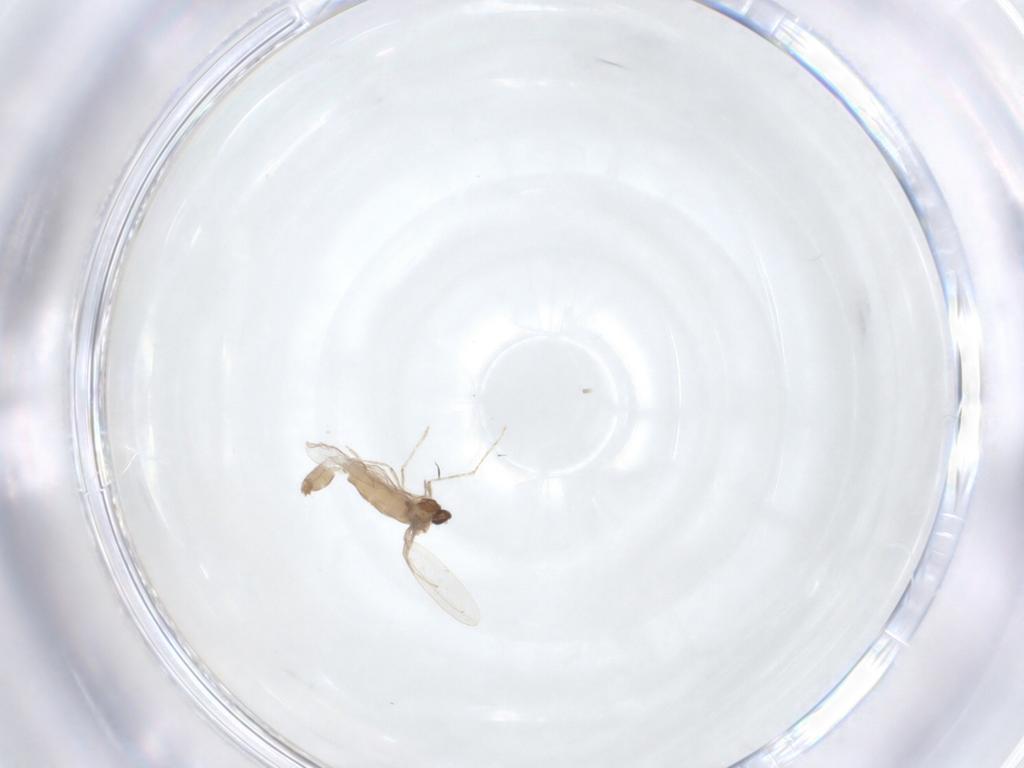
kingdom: Animalia
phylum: Arthropoda
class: Insecta
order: Diptera
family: Cecidomyiidae
